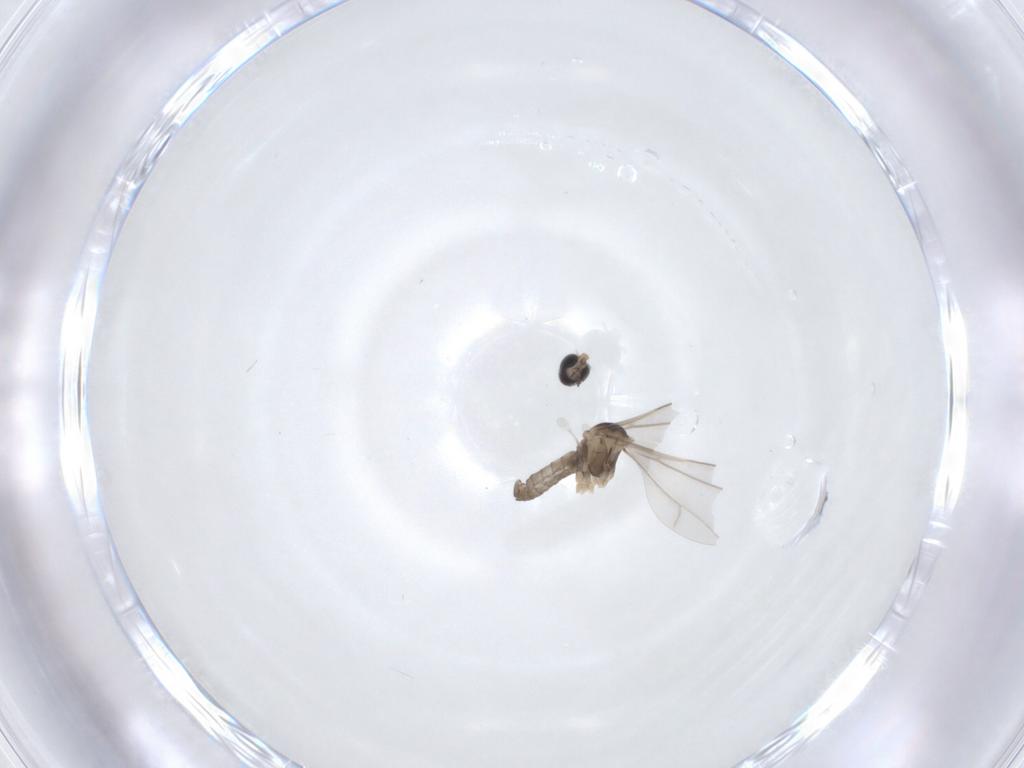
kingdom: Animalia
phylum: Arthropoda
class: Insecta
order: Diptera
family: Cecidomyiidae
